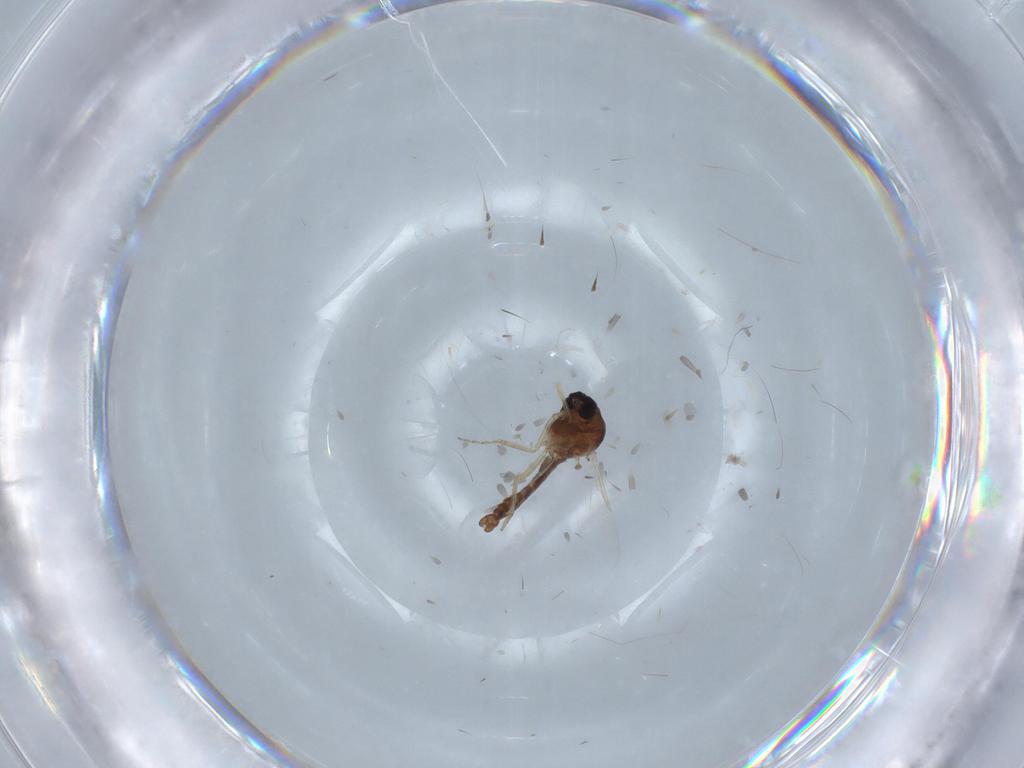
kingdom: Animalia
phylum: Arthropoda
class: Insecta
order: Diptera
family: Ceratopogonidae
